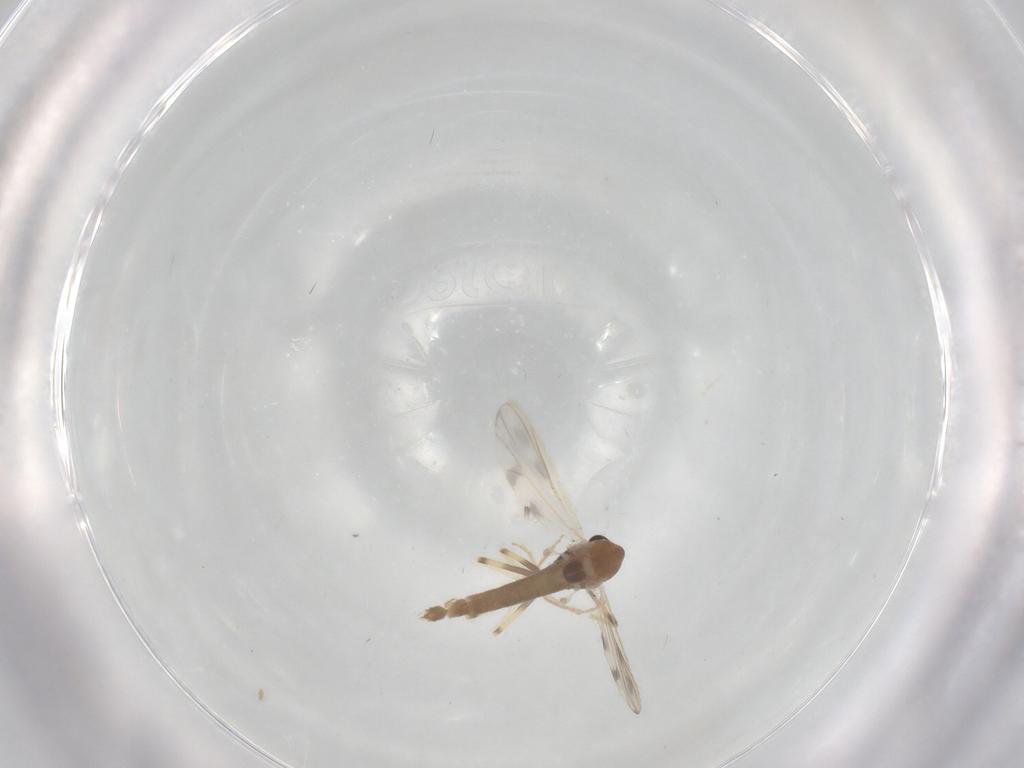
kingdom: Animalia
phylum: Arthropoda
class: Insecta
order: Diptera
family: Chironomidae
